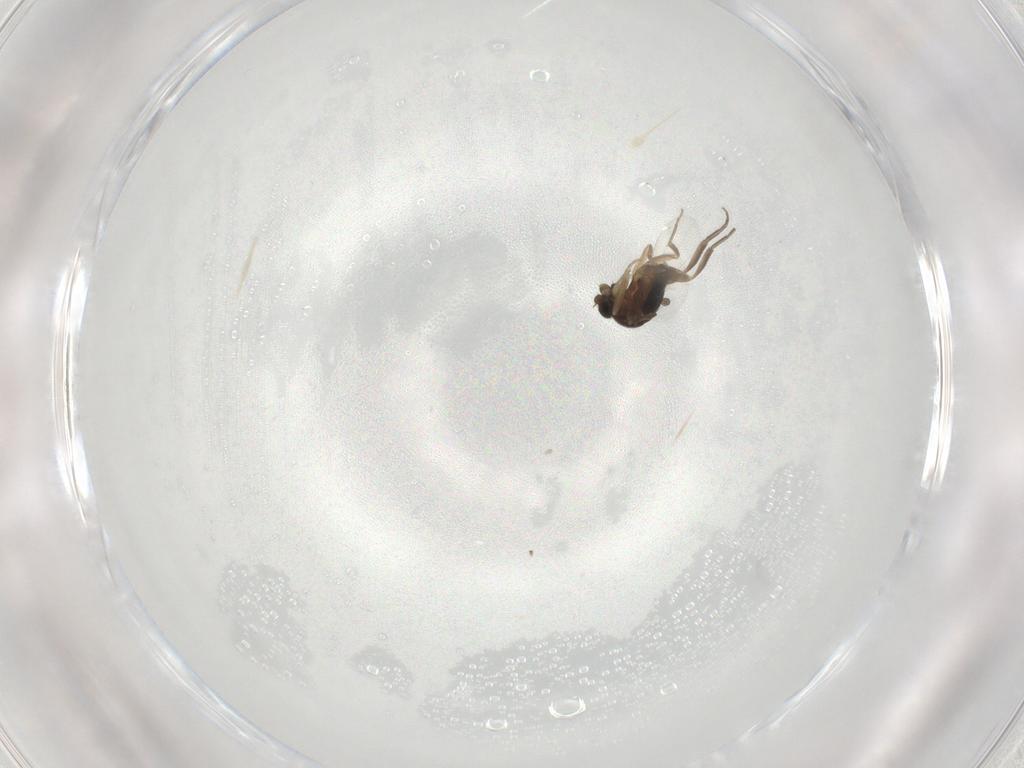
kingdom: Animalia
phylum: Arthropoda
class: Insecta
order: Diptera
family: Phoridae
